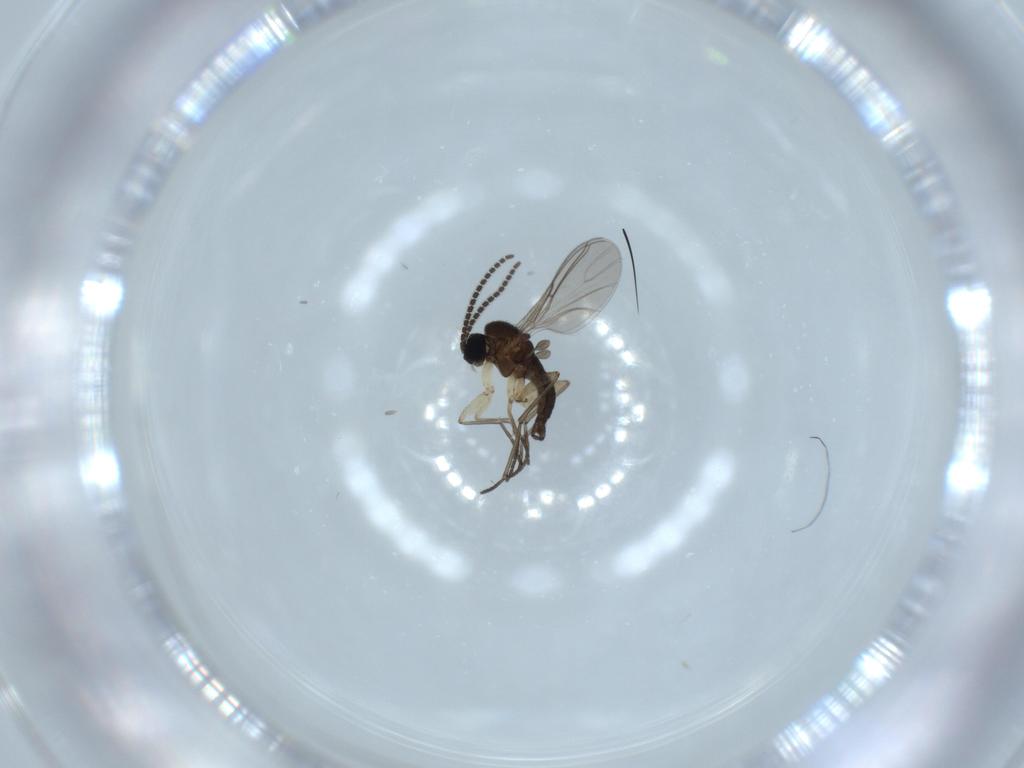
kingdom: Animalia
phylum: Arthropoda
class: Insecta
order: Diptera
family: Sciaridae
